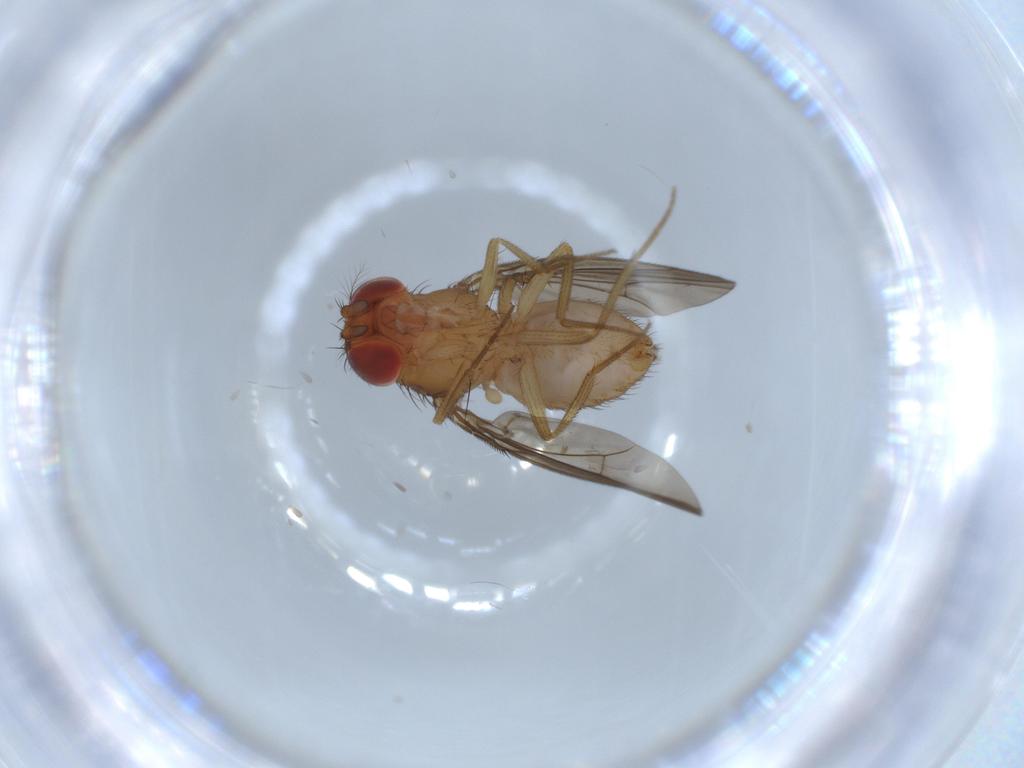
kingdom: Animalia
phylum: Arthropoda
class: Insecta
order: Diptera
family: Drosophilidae
